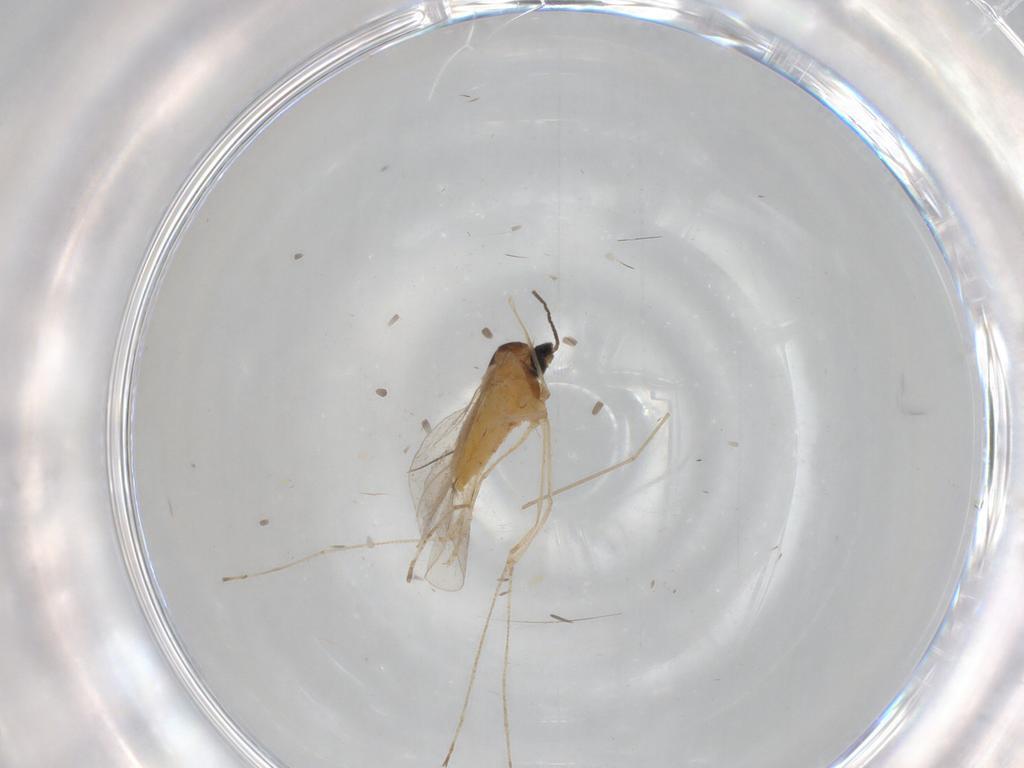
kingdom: Animalia
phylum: Arthropoda
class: Insecta
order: Diptera
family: Cecidomyiidae
